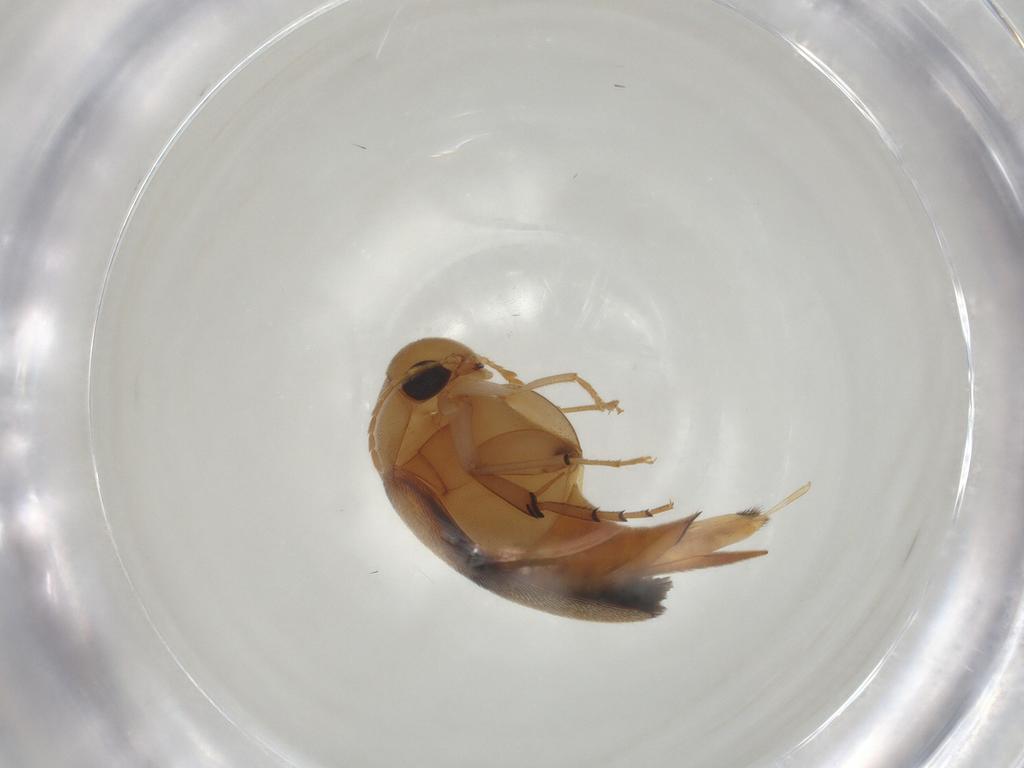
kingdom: Animalia
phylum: Arthropoda
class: Insecta
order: Coleoptera
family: Mordellidae
